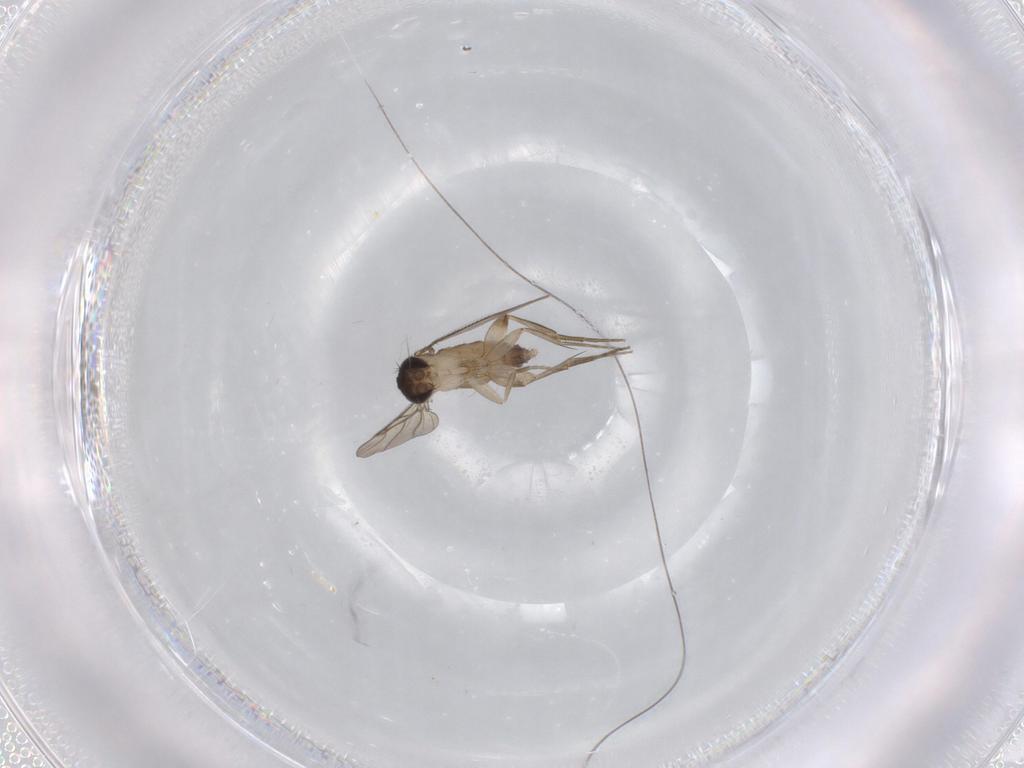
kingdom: Animalia
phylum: Arthropoda
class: Insecta
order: Diptera
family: Phoridae
